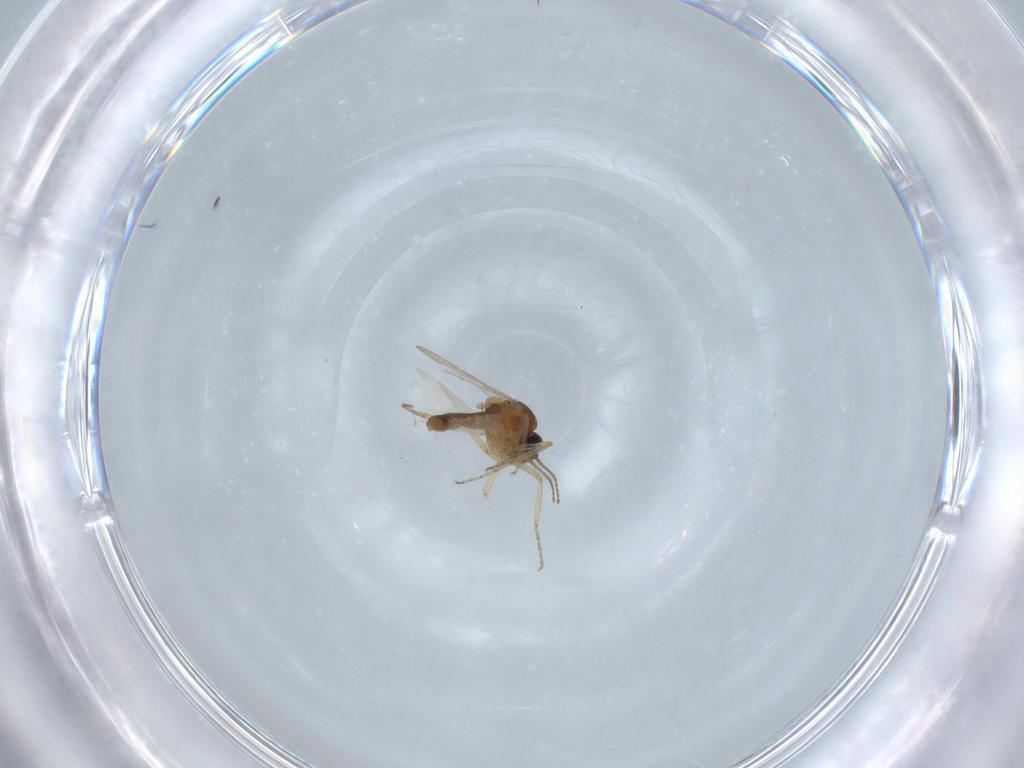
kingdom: Animalia
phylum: Arthropoda
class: Insecta
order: Diptera
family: Ceratopogonidae
